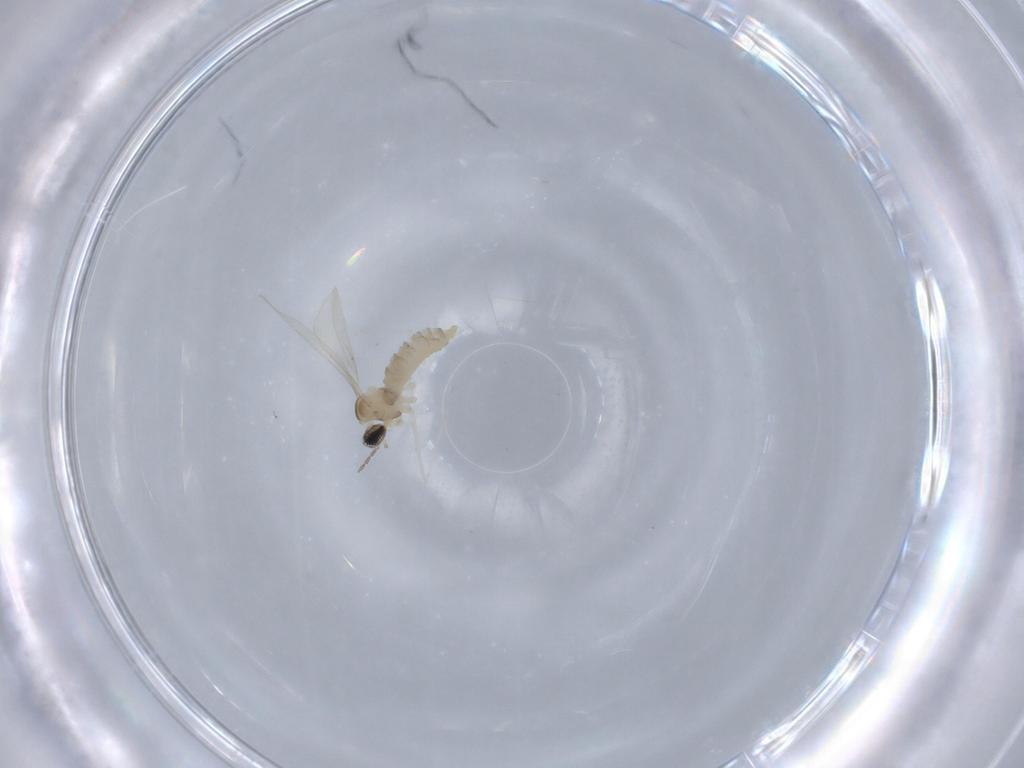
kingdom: Animalia
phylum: Arthropoda
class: Insecta
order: Diptera
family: Cecidomyiidae
